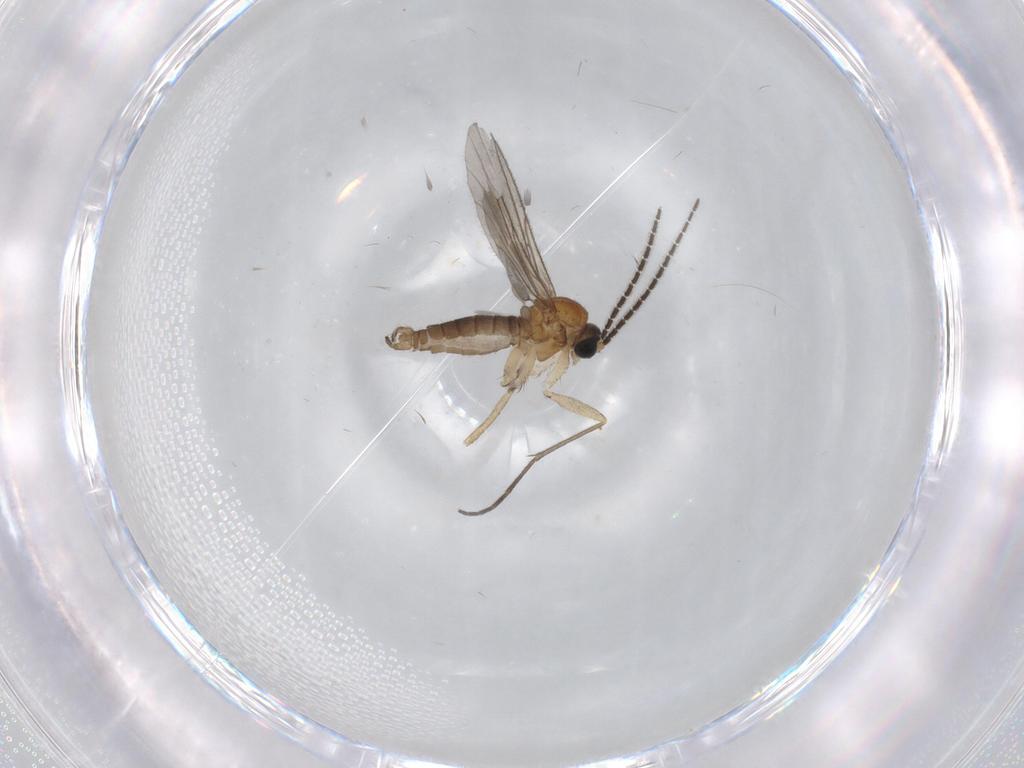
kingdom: Animalia
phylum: Arthropoda
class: Insecta
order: Diptera
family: Sciaridae
